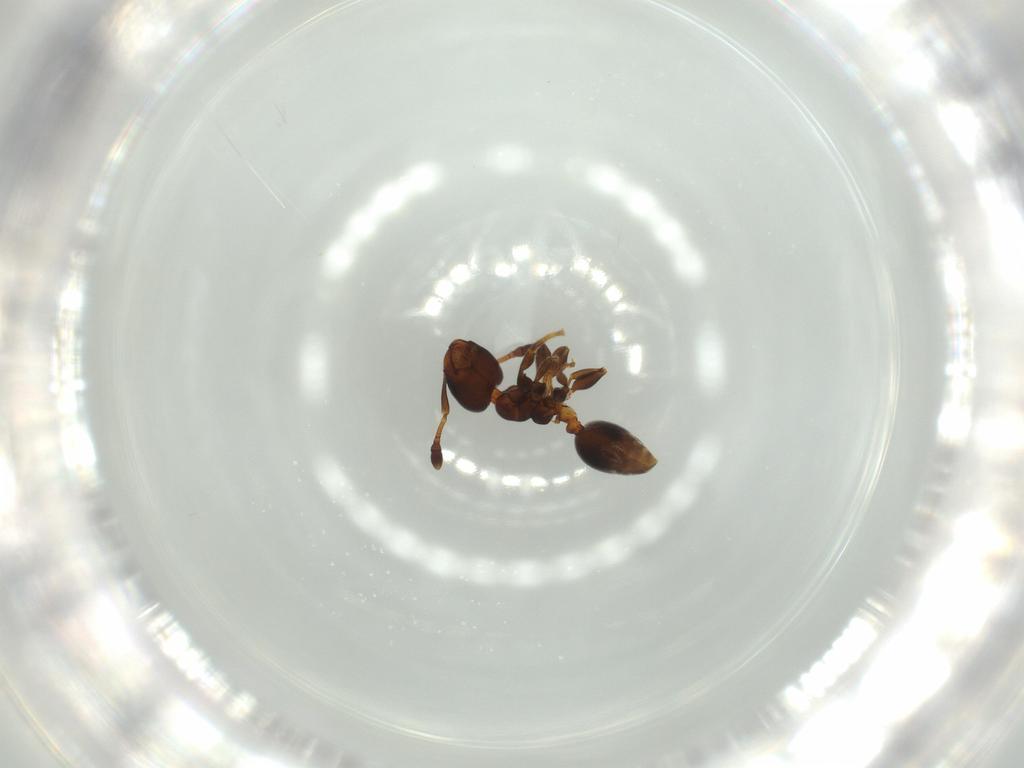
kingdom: Animalia
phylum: Arthropoda
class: Insecta
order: Hymenoptera
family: Formicidae
